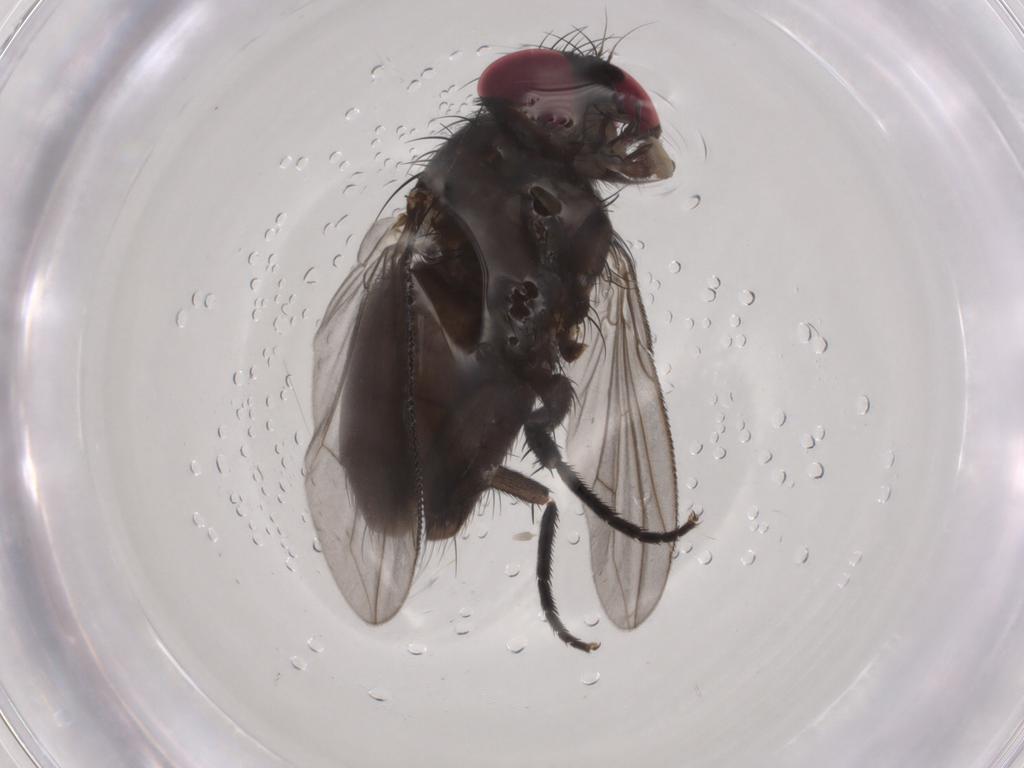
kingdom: Animalia
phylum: Arthropoda
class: Insecta
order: Diptera
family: Calliphoridae
